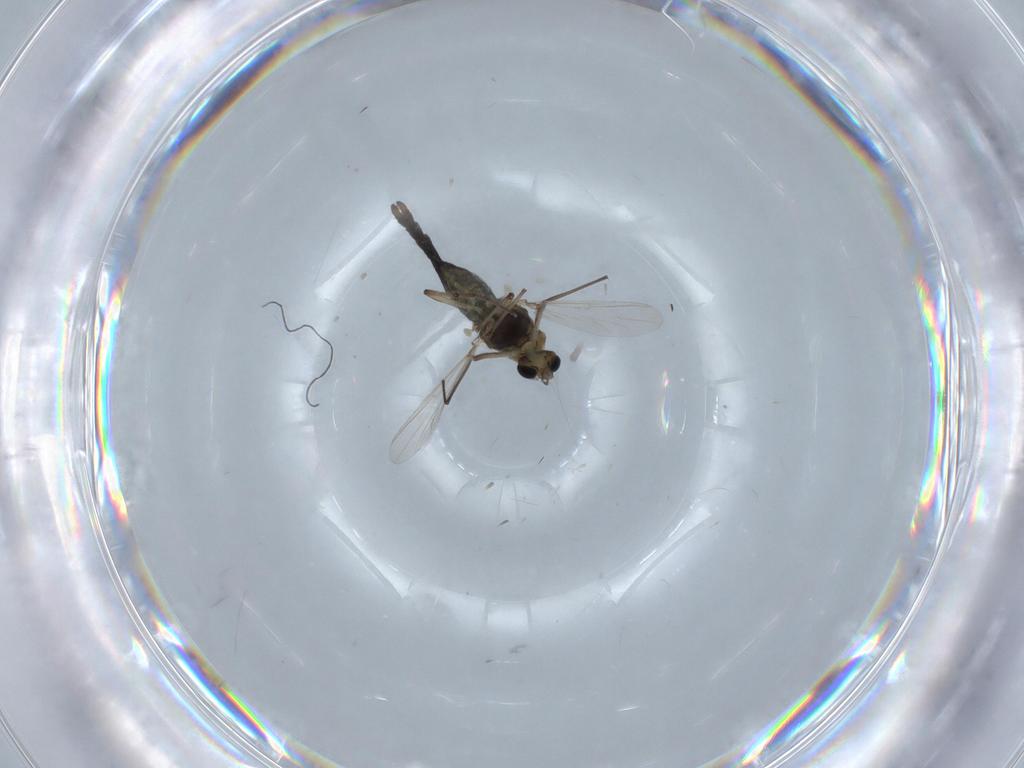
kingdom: Animalia
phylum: Arthropoda
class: Insecta
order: Diptera
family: Chironomidae
